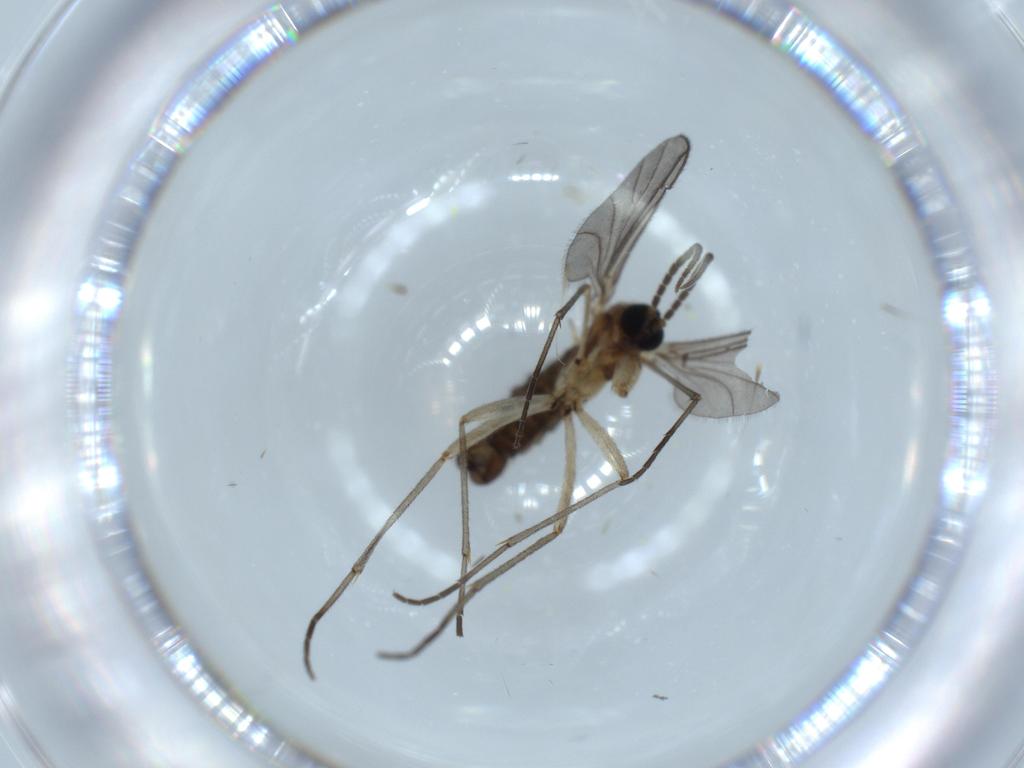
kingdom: Animalia
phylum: Arthropoda
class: Insecta
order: Diptera
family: Sciaridae
